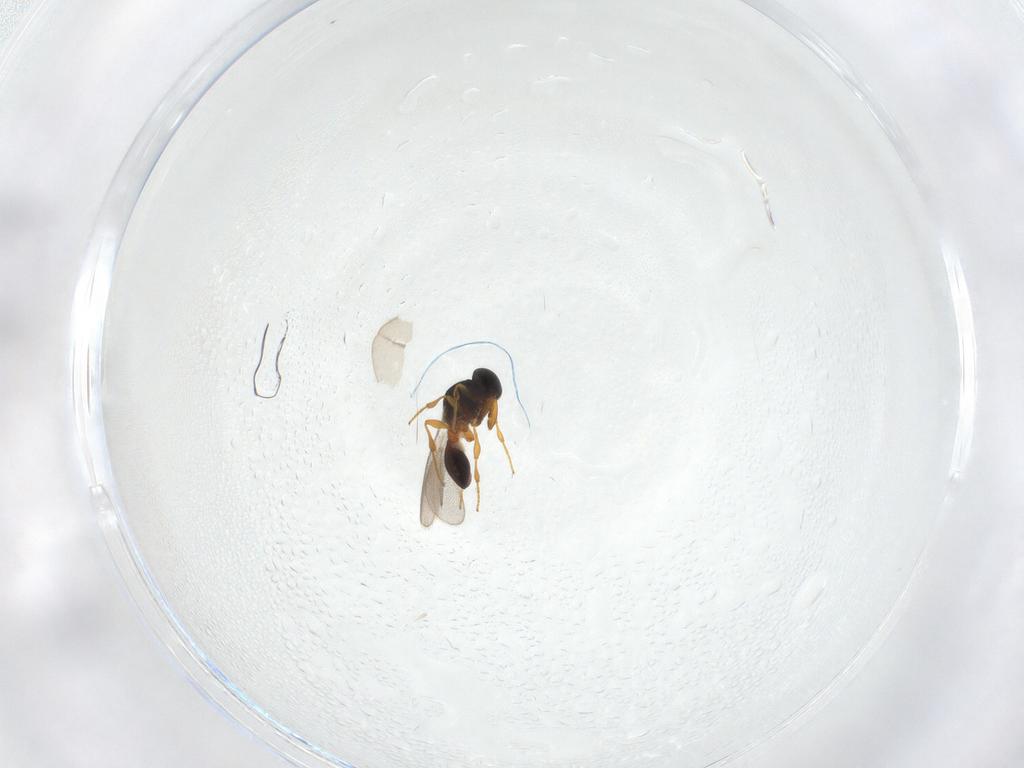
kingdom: Animalia
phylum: Arthropoda
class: Insecta
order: Hymenoptera
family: Platygastridae
